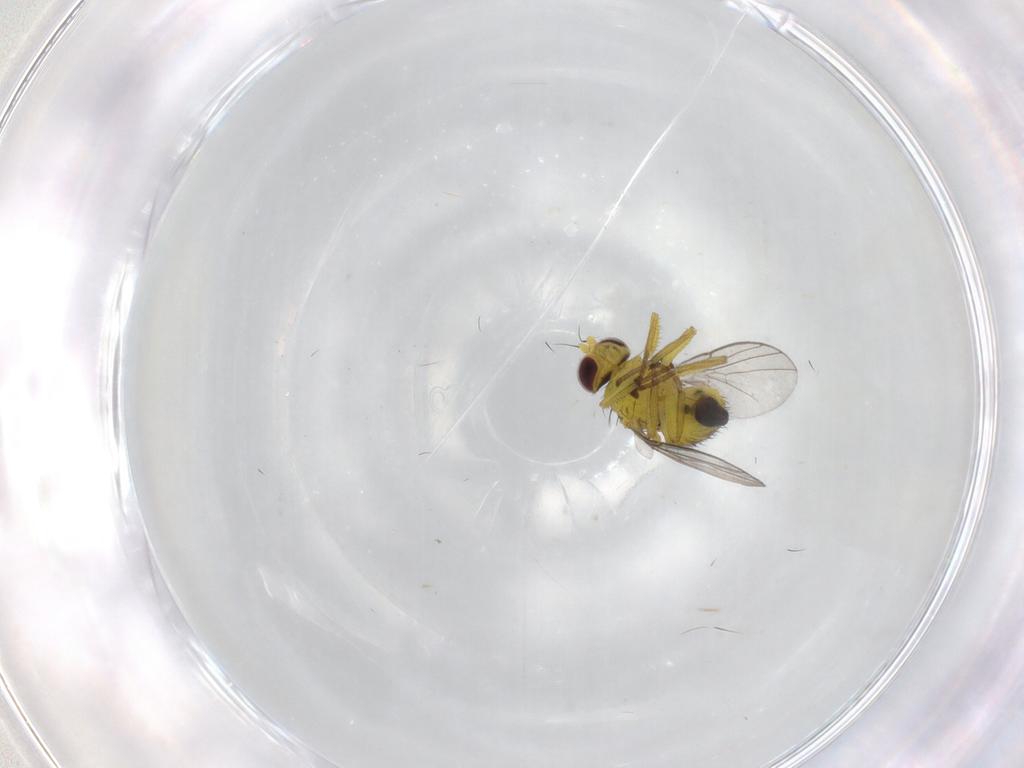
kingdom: Animalia
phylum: Arthropoda
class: Insecta
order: Diptera
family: Agromyzidae
